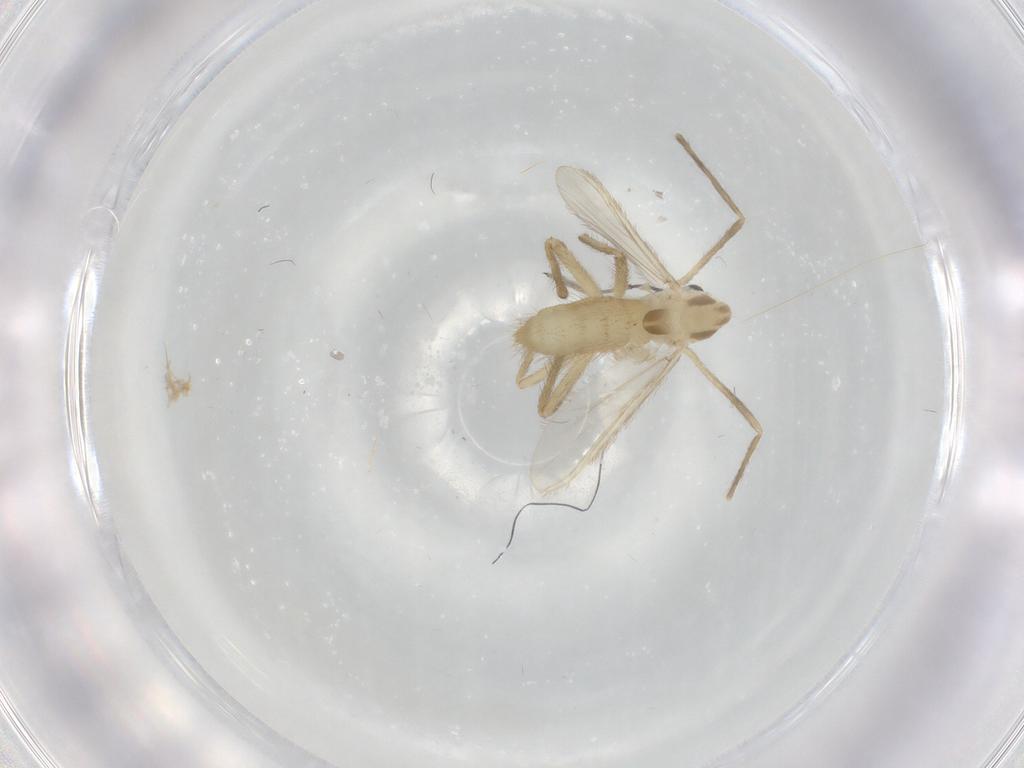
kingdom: Animalia
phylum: Arthropoda
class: Insecta
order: Diptera
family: Chironomidae
